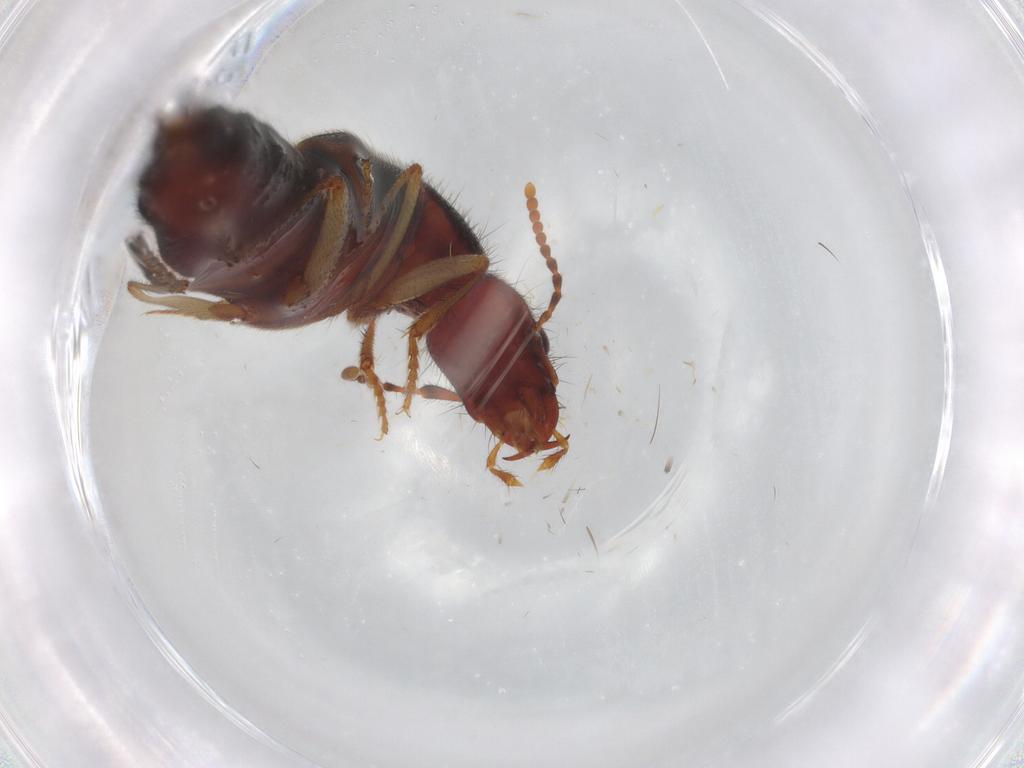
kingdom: Animalia
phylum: Arthropoda
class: Insecta
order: Coleoptera
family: Staphylinidae
